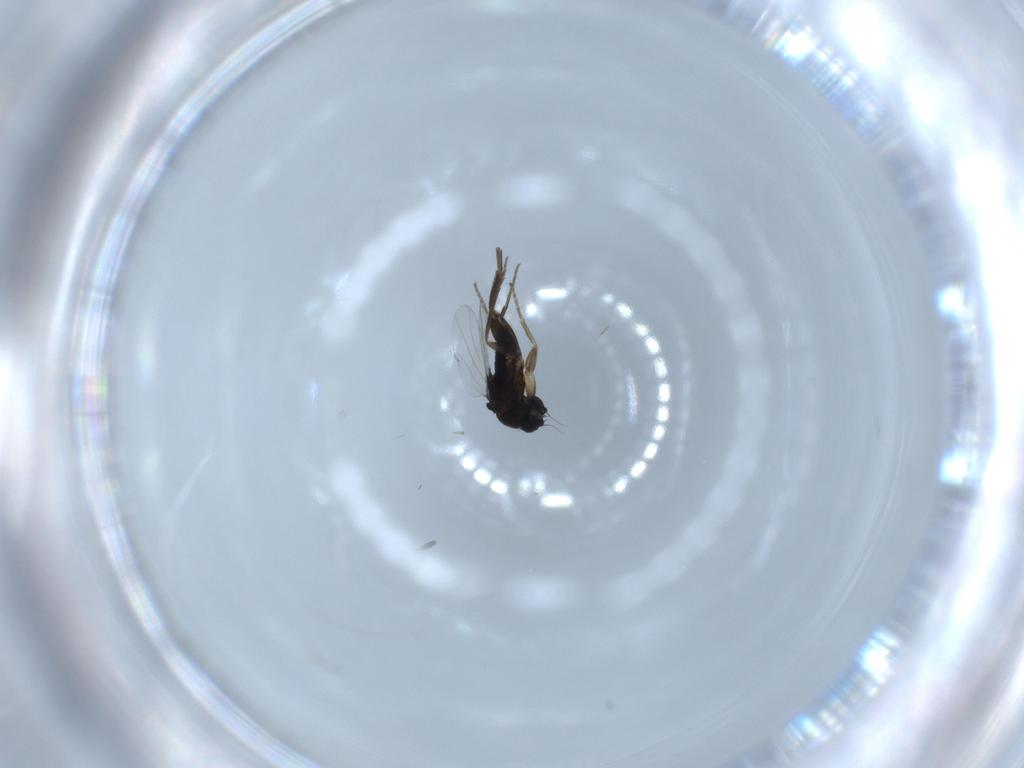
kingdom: Animalia
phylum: Arthropoda
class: Insecta
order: Diptera
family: Phoridae
